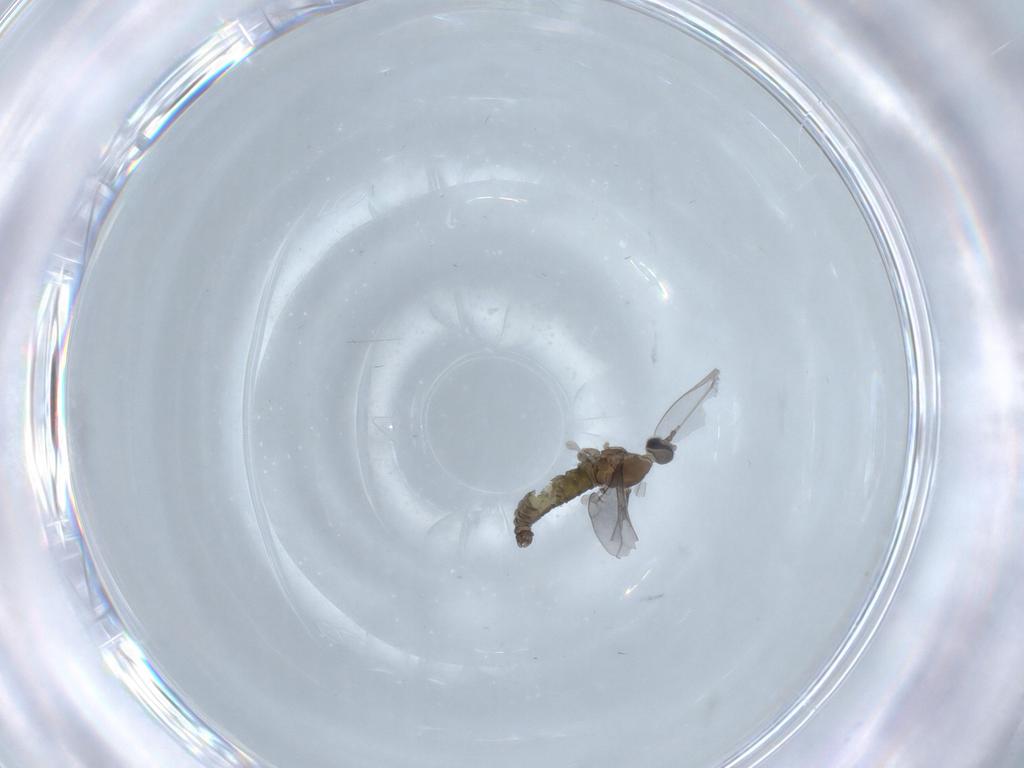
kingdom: Animalia
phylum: Arthropoda
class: Insecta
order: Diptera
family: Bibionidae
